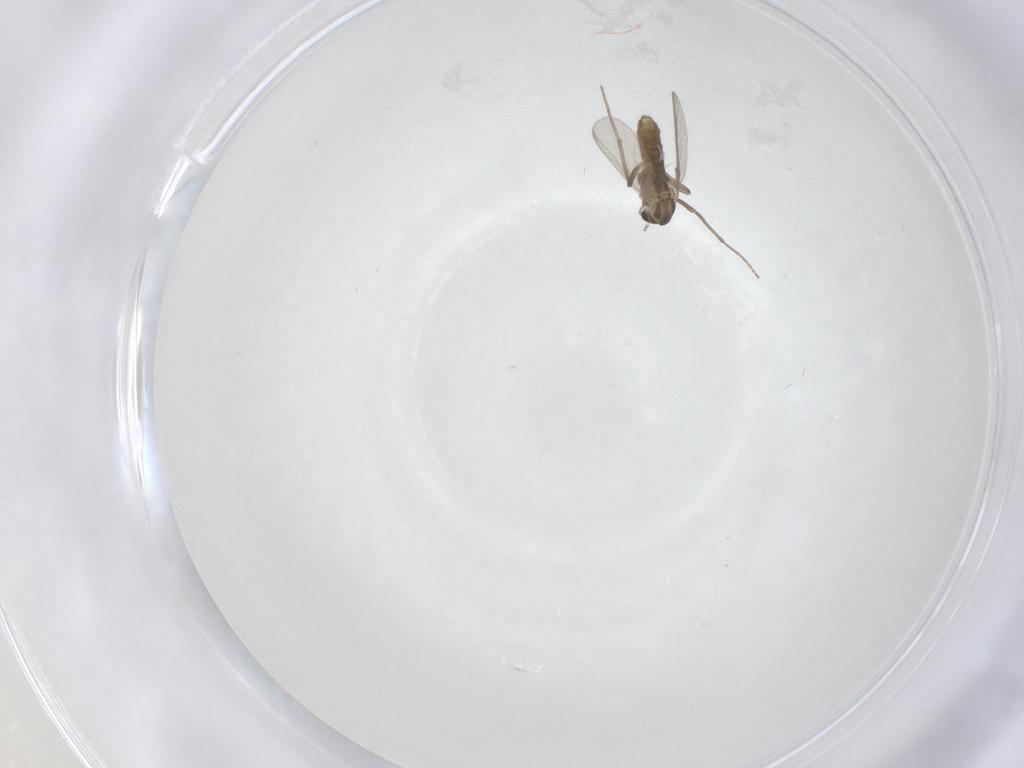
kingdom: Animalia
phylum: Arthropoda
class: Insecta
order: Diptera
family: Chironomidae
